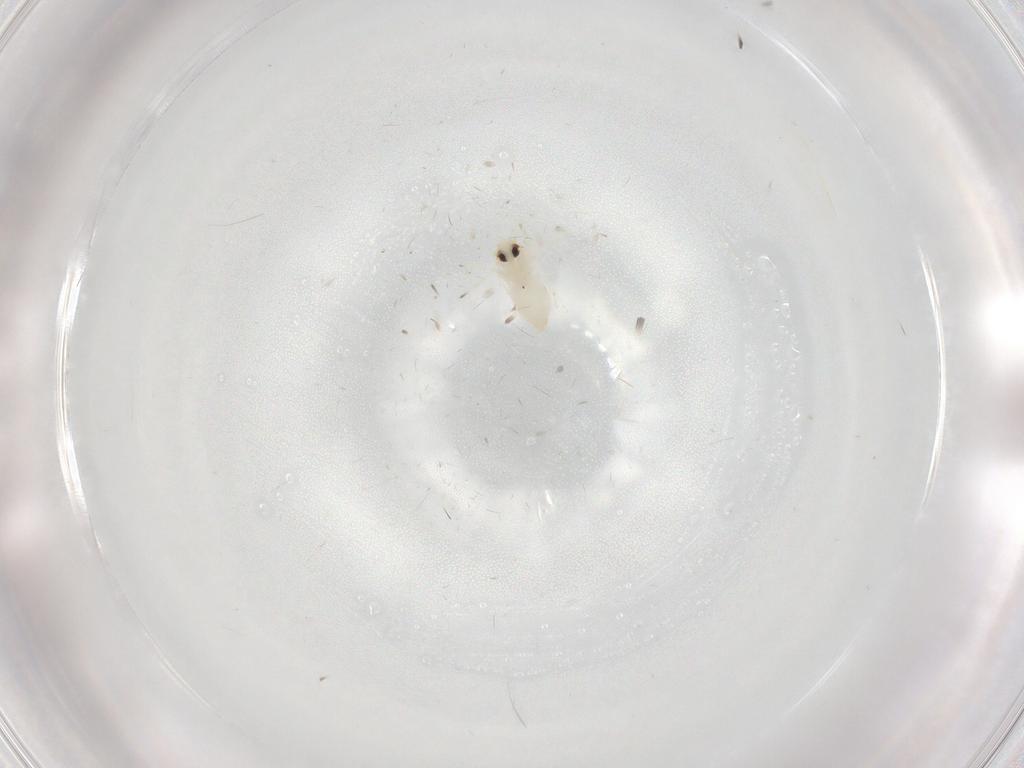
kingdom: Animalia
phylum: Arthropoda
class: Insecta
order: Hemiptera
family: Aleyrodidae
